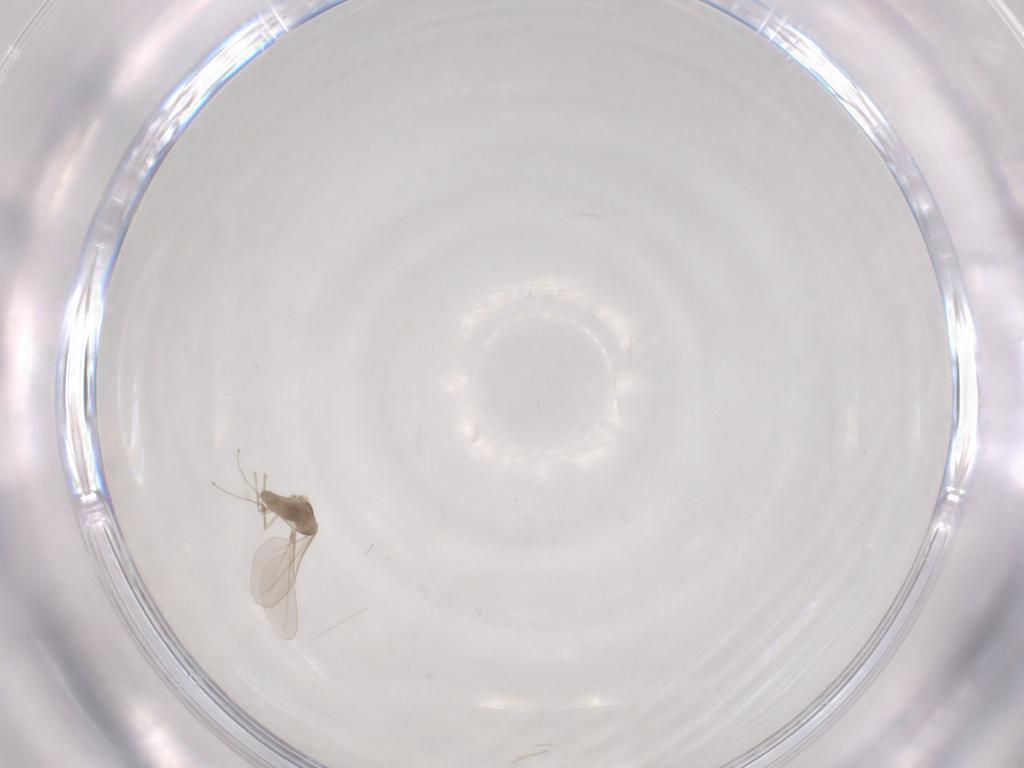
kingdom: Animalia
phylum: Arthropoda
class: Insecta
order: Diptera
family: Cecidomyiidae
